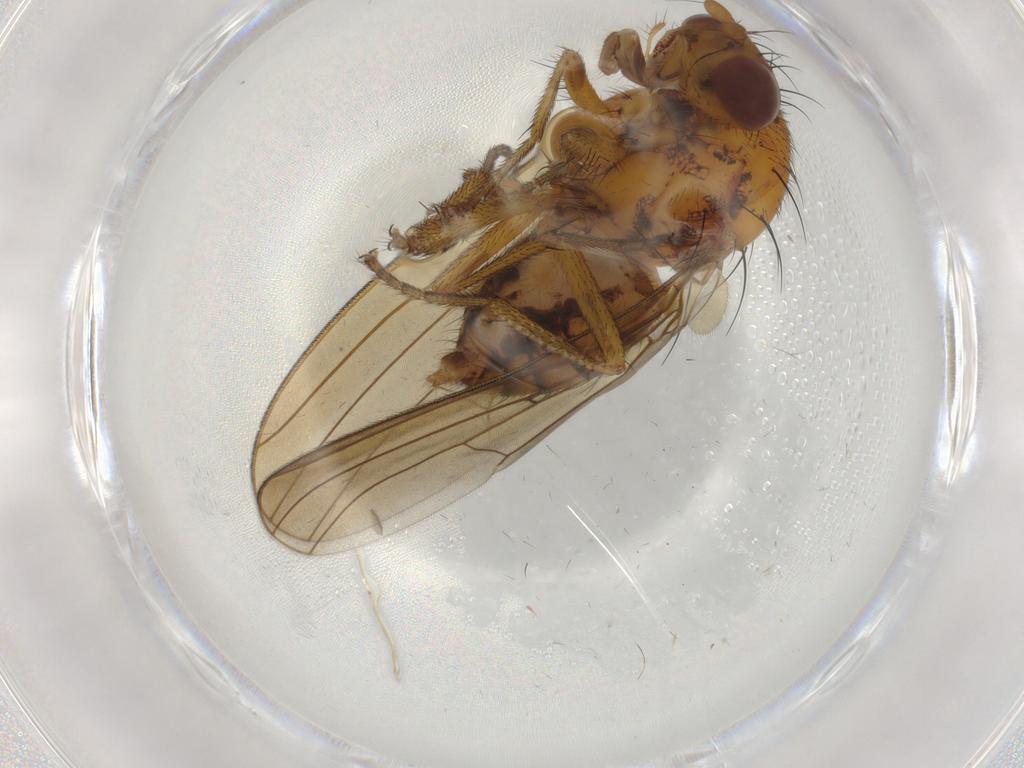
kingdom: Animalia
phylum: Arthropoda
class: Insecta
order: Diptera
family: Lauxaniidae
